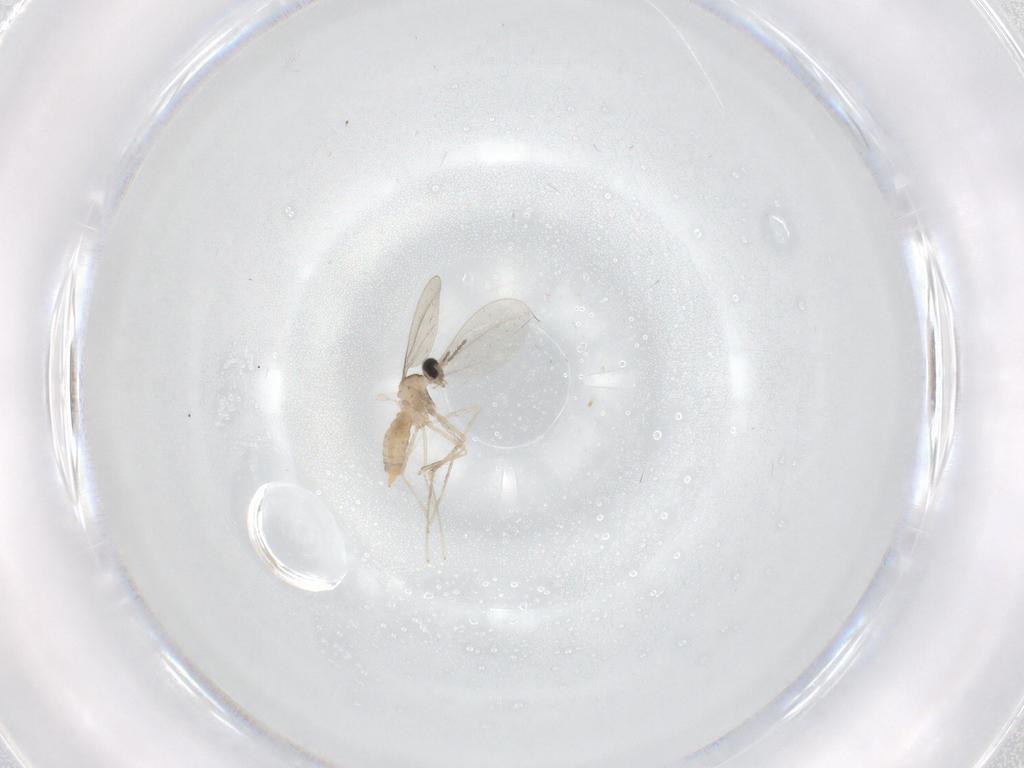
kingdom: Animalia
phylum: Arthropoda
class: Insecta
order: Diptera
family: Cecidomyiidae
